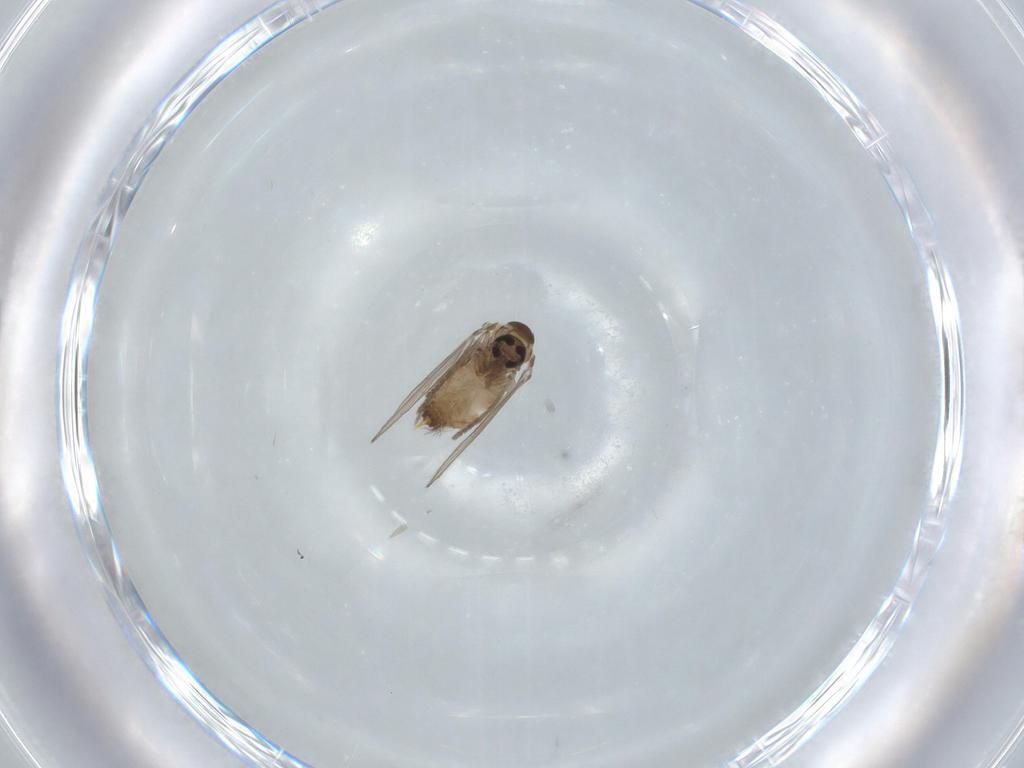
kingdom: Animalia
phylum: Arthropoda
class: Insecta
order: Diptera
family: Psychodidae
